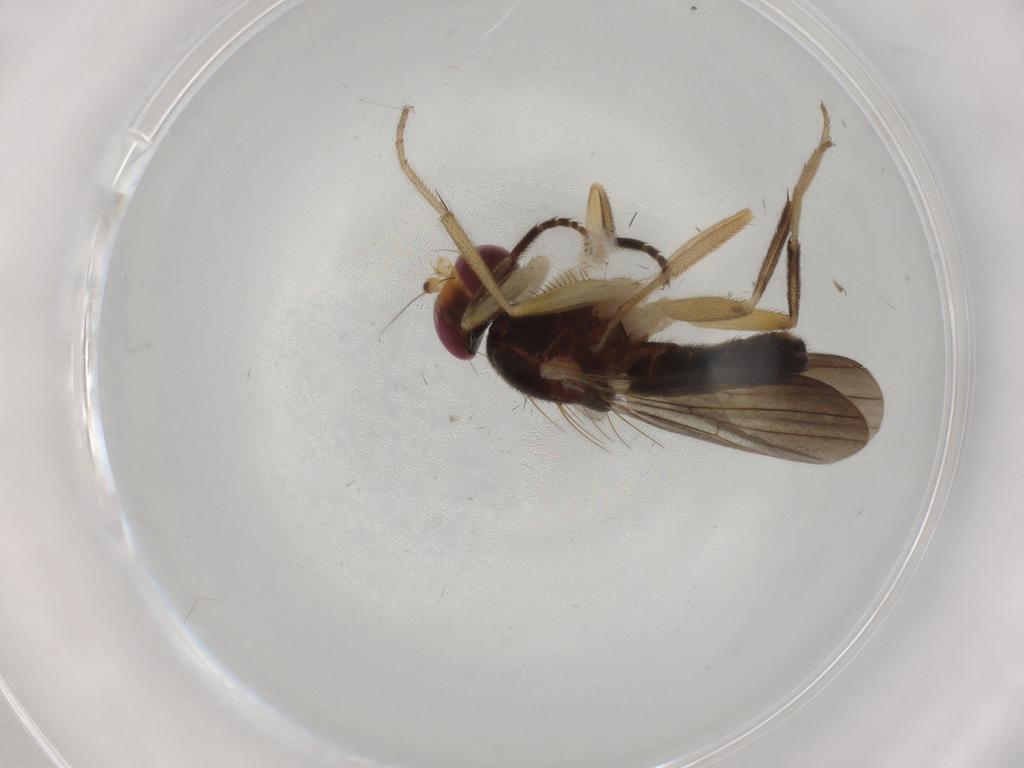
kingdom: Animalia
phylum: Arthropoda
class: Insecta
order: Diptera
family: Clusiidae
